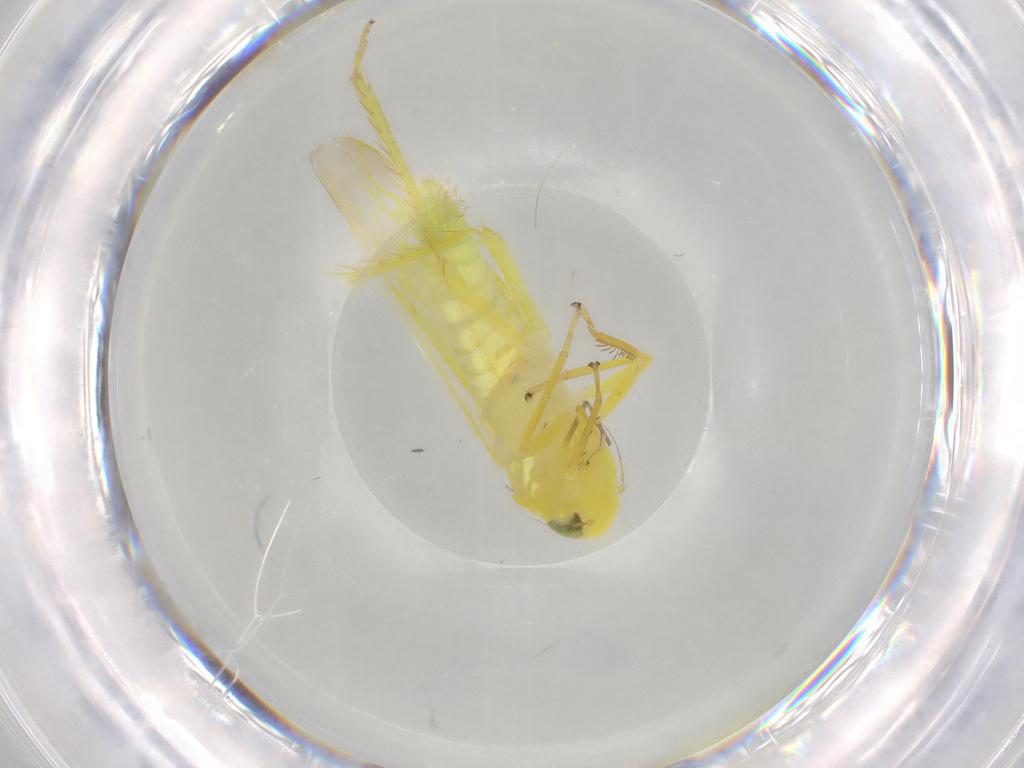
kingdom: Animalia
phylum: Arthropoda
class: Insecta
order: Hemiptera
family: Cicadellidae
